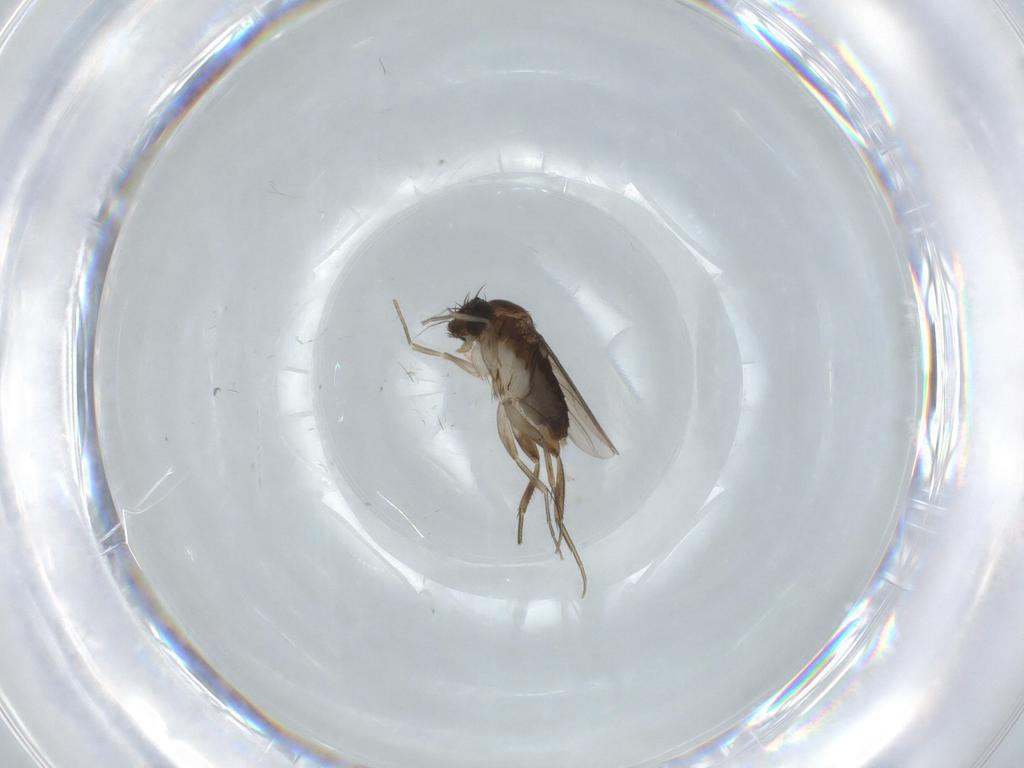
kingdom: Animalia
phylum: Arthropoda
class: Insecta
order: Diptera
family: Phoridae
